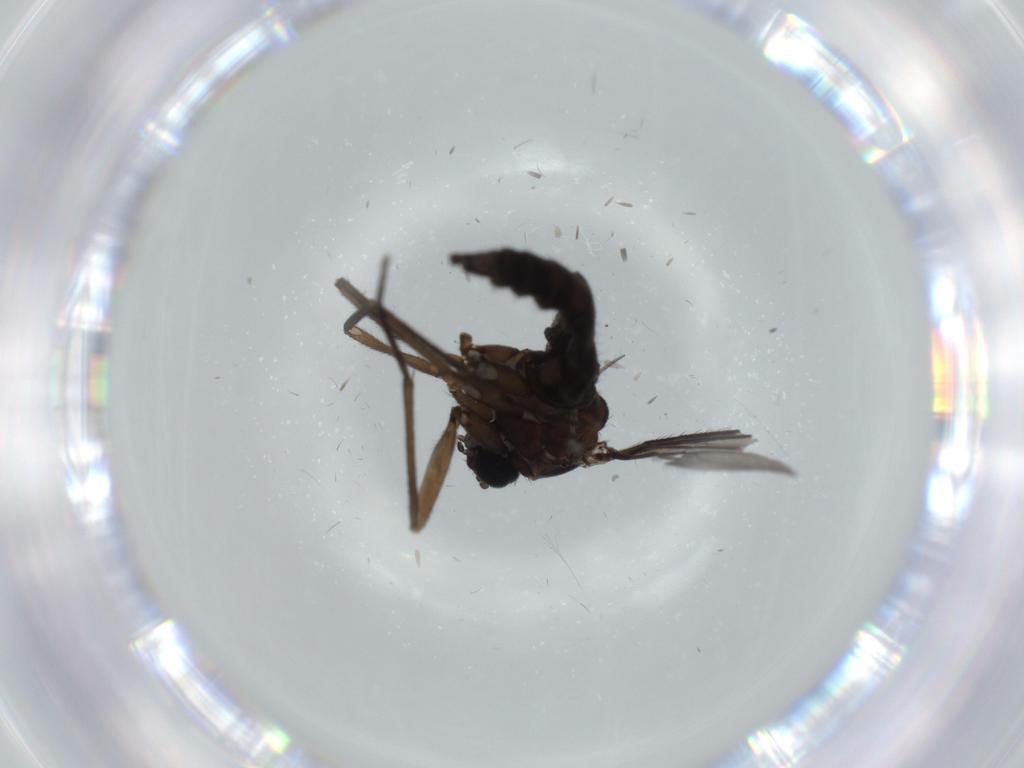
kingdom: Animalia
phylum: Arthropoda
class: Insecta
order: Diptera
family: Sciaridae
